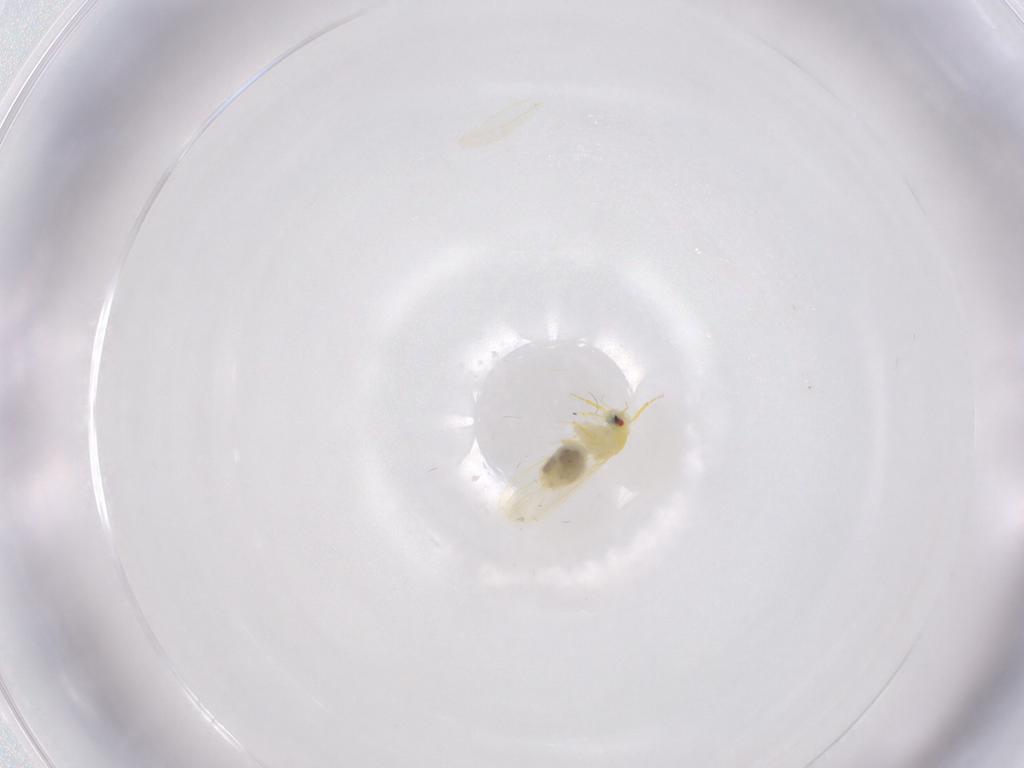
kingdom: Animalia
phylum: Arthropoda
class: Insecta
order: Hemiptera
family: Aleyrodidae
